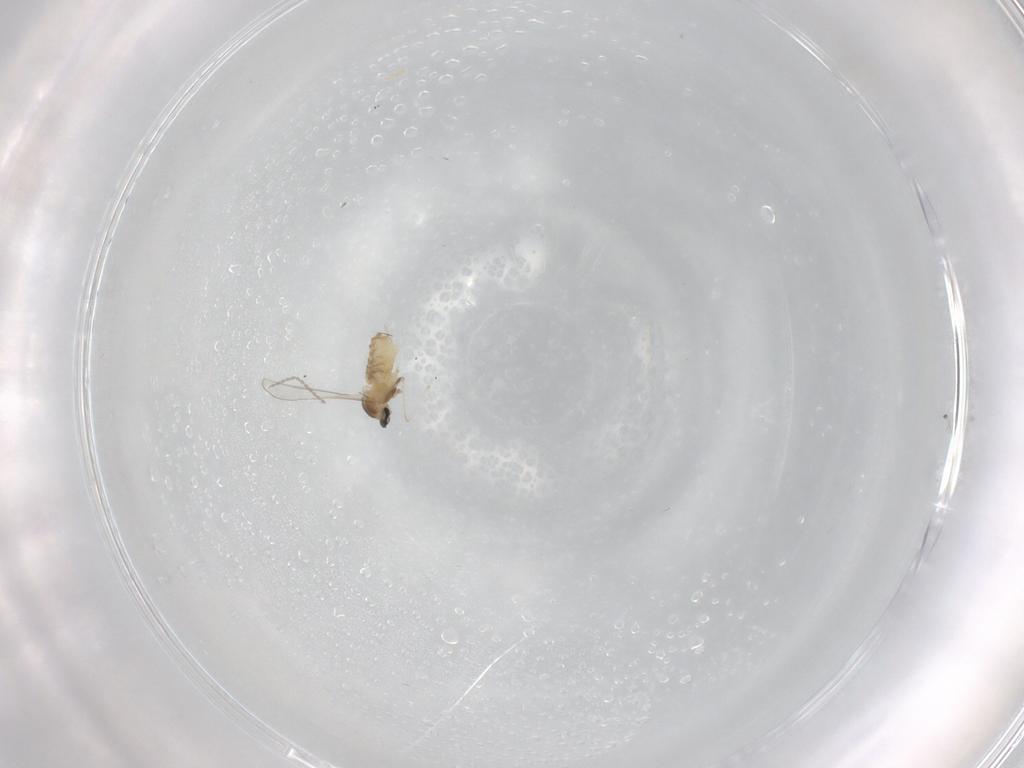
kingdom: Animalia
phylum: Arthropoda
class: Insecta
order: Diptera
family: Cecidomyiidae
